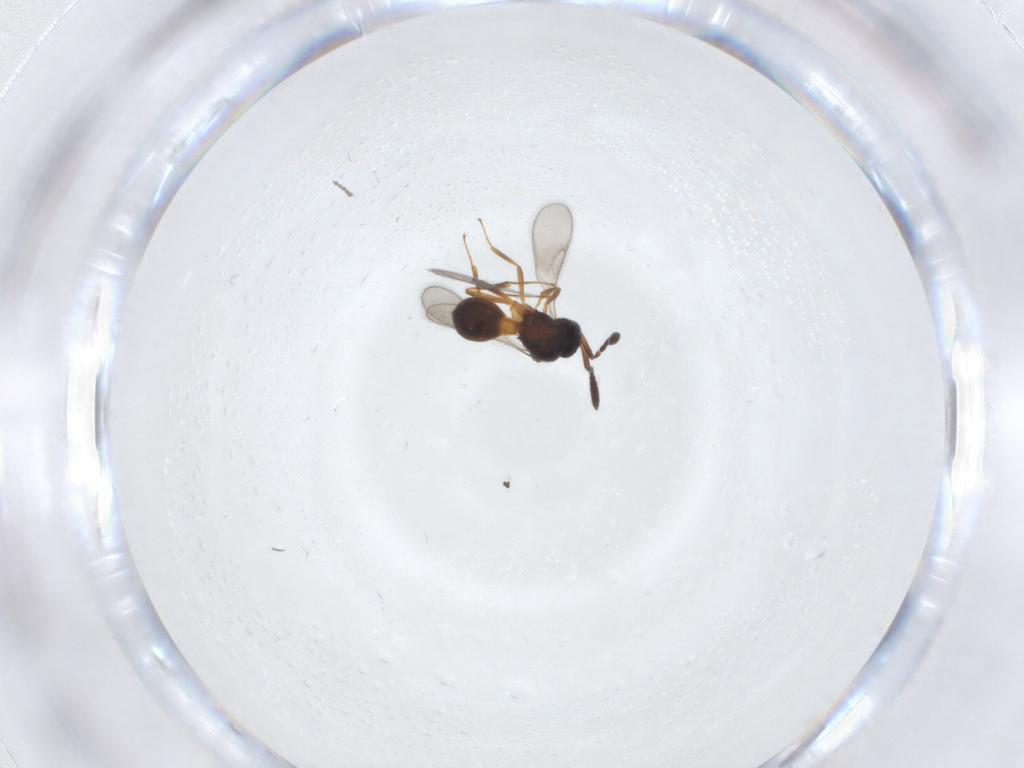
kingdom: Animalia
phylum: Arthropoda
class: Insecta
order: Hymenoptera
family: Scelionidae
